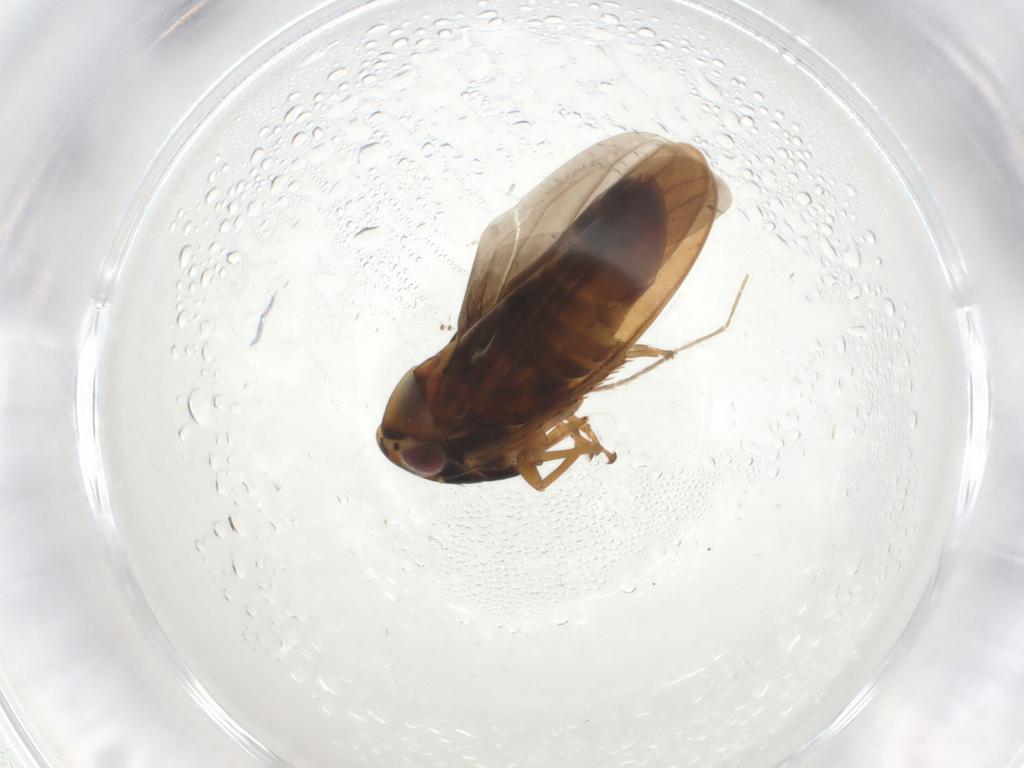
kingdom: Animalia
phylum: Arthropoda
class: Insecta
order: Hemiptera
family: Cicadellidae
